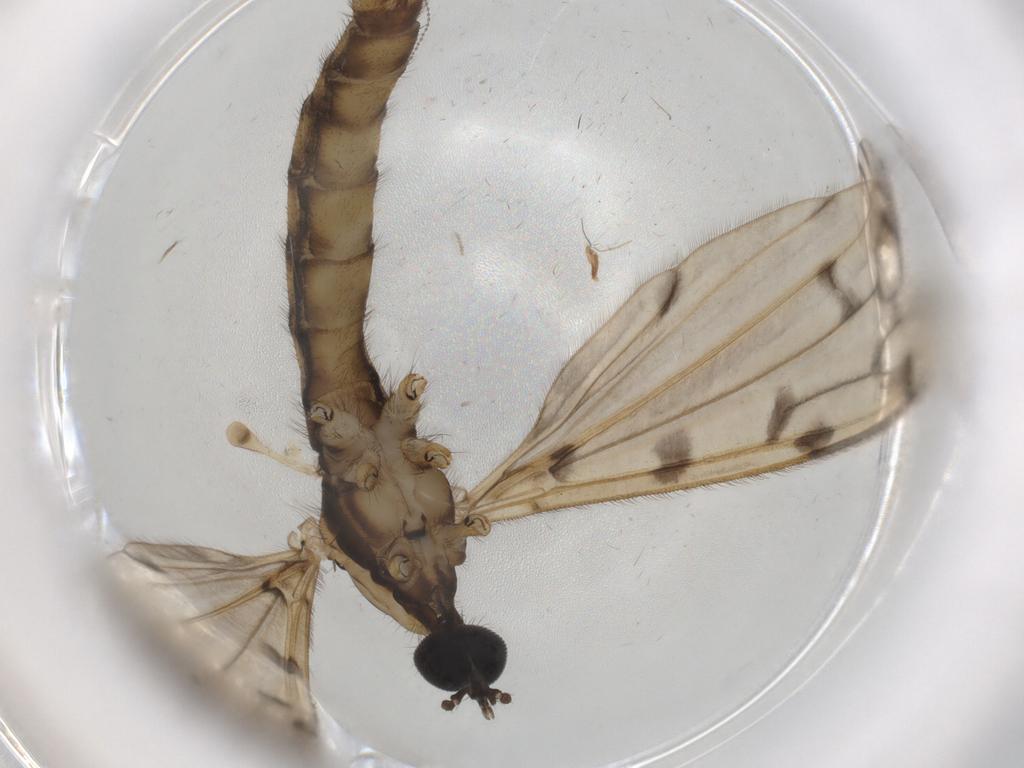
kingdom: Animalia
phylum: Arthropoda
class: Insecta
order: Diptera
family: Limoniidae
